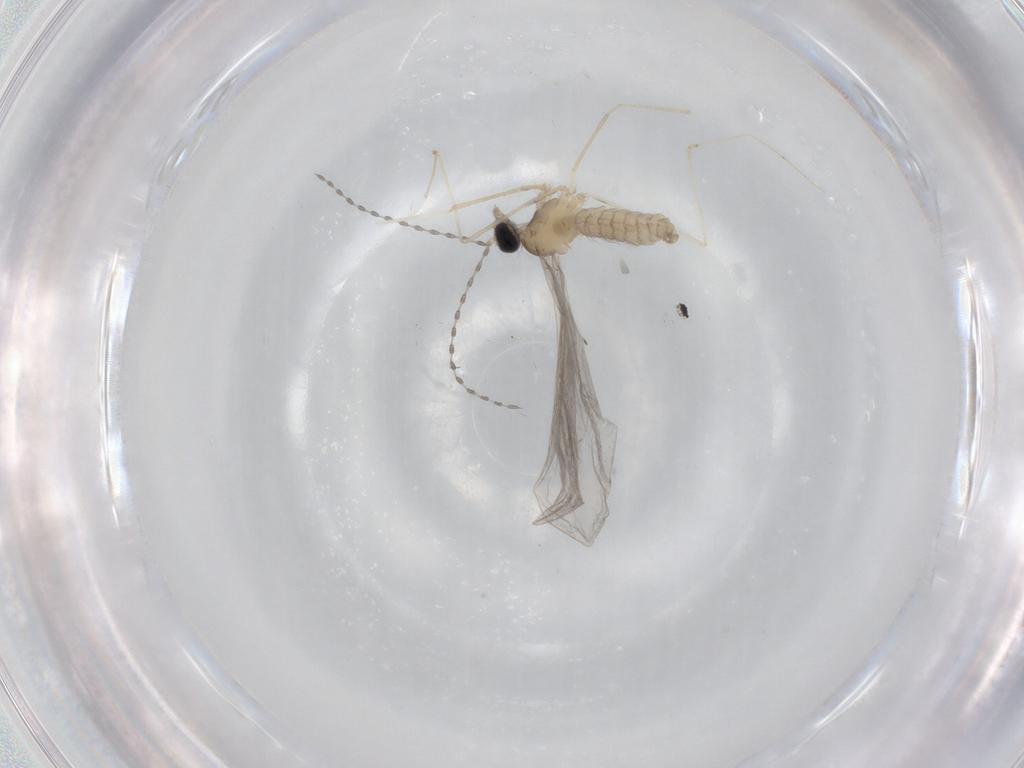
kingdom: Animalia
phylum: Arthropoda
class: Insecta
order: Diptera
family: Cecidomyiidae
